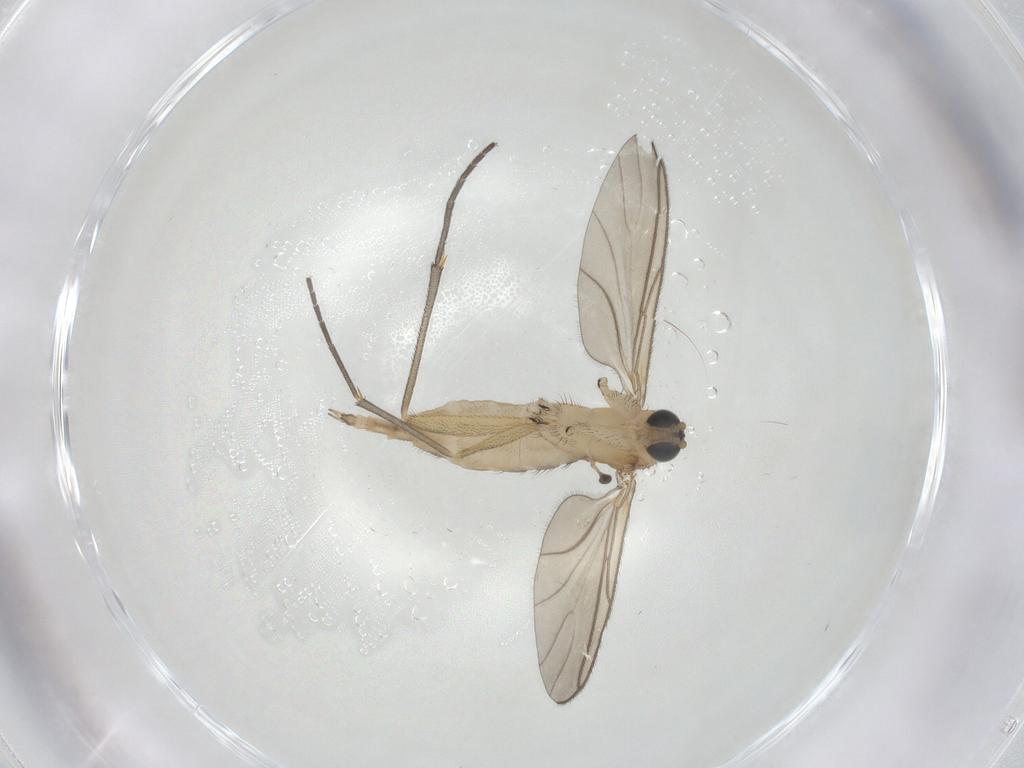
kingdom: Animalia
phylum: Arthropoda
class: Insecta
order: Diptera
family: Sciaridae
